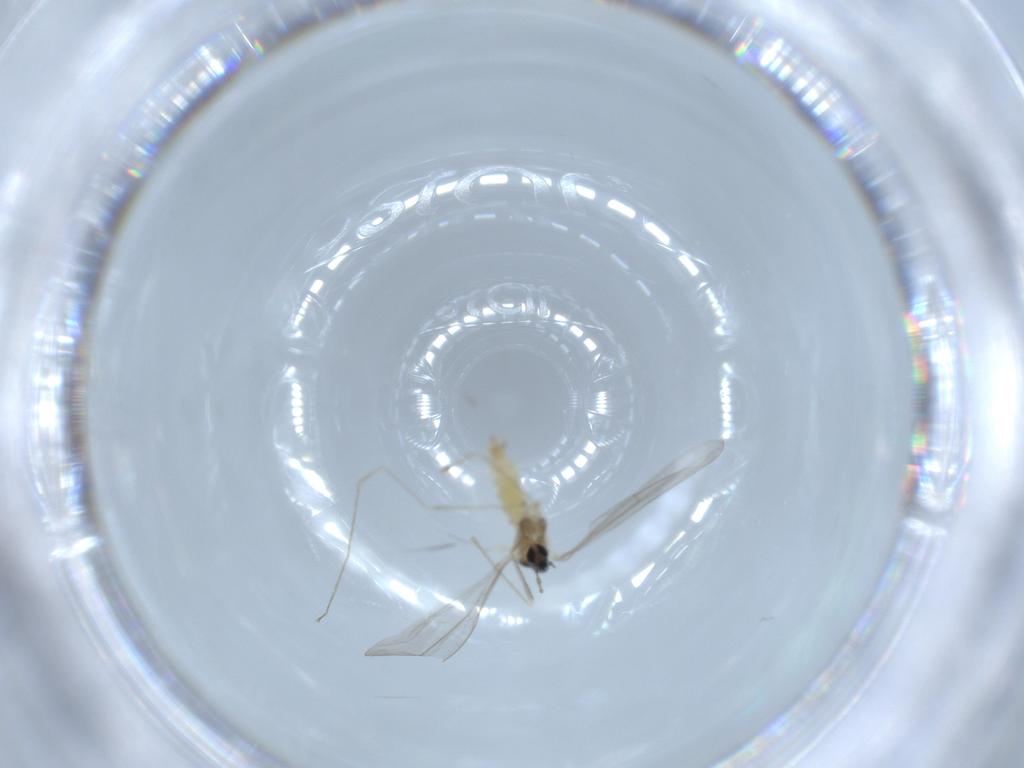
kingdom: Animalia
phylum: Arthropoda
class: Insecta
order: Diptera
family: Cecidomyiidae
